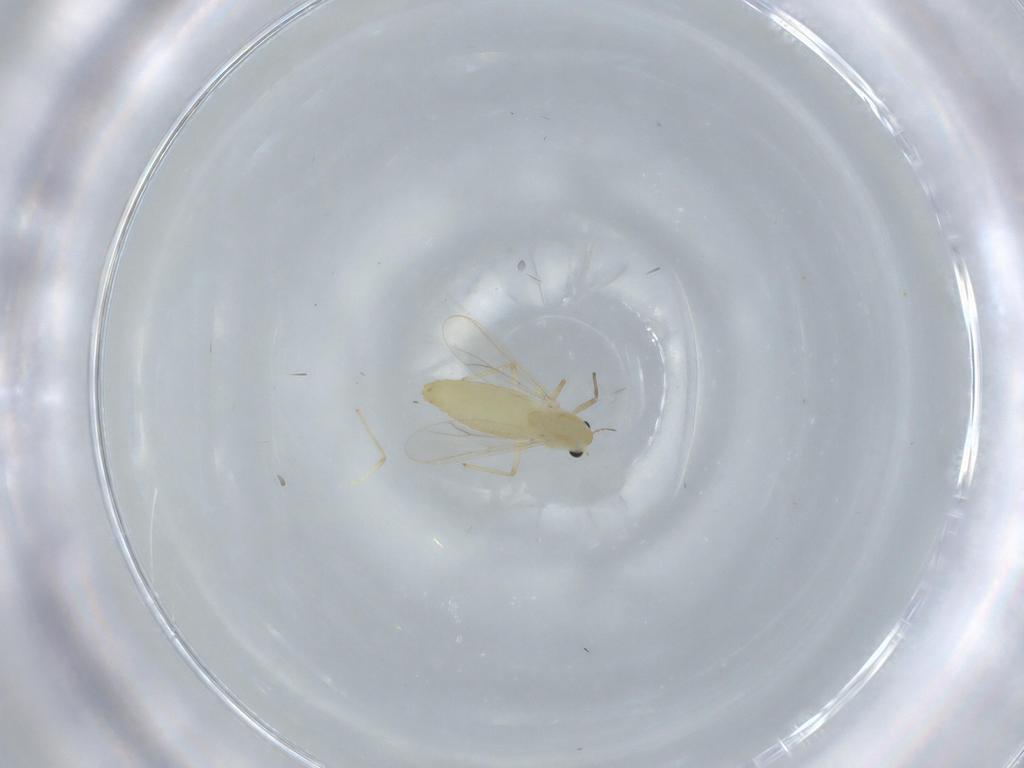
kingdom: Animalia
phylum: Arthropoda
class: Insecta
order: Diptera
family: Chironomidae
